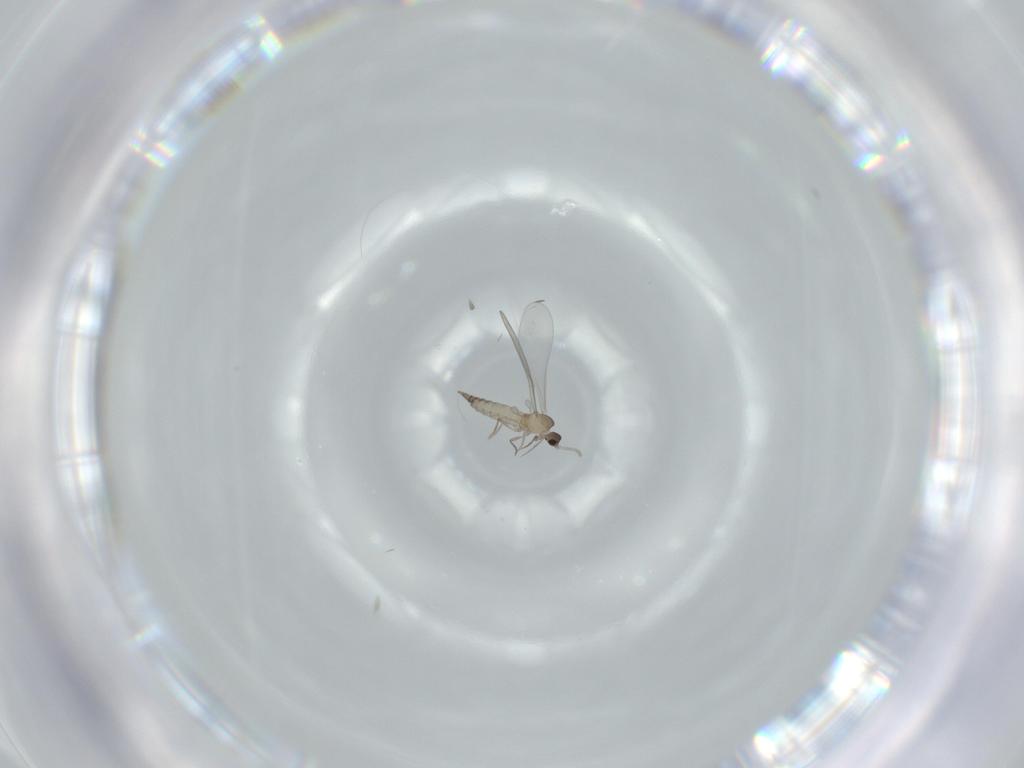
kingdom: Animalia
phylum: Arthropoda
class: Insecta
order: Diptera
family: Cecidomyiidae
